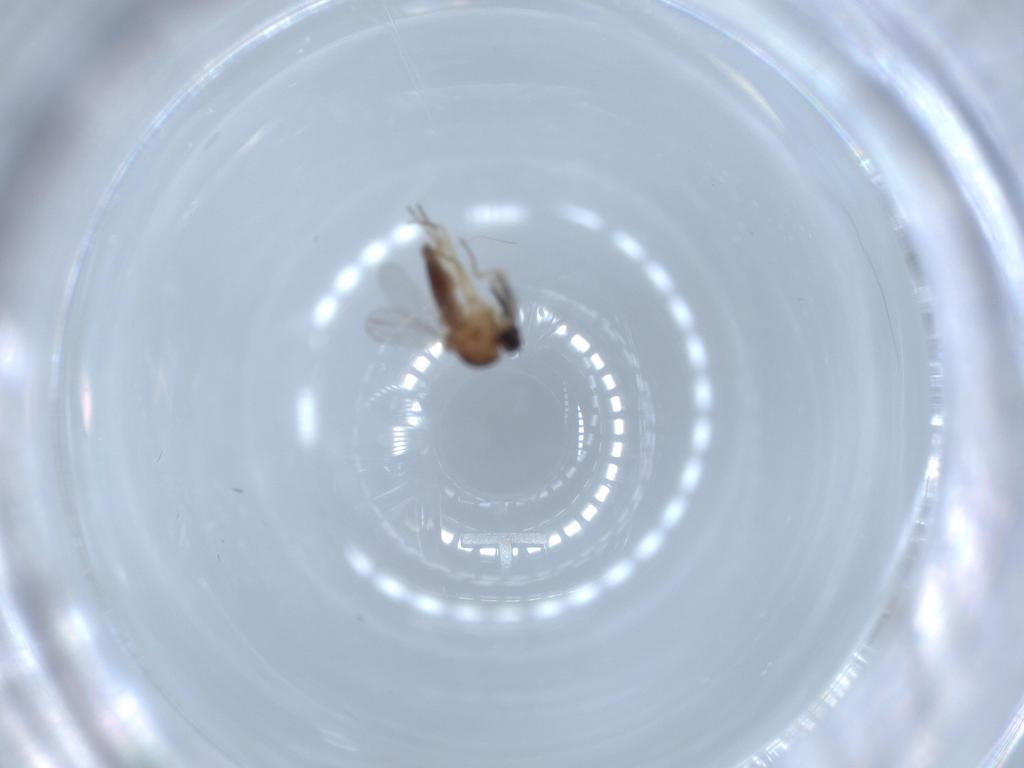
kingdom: Animalia
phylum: Arthropoda
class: Insecta
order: Diptera
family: Ceratopogonidae
